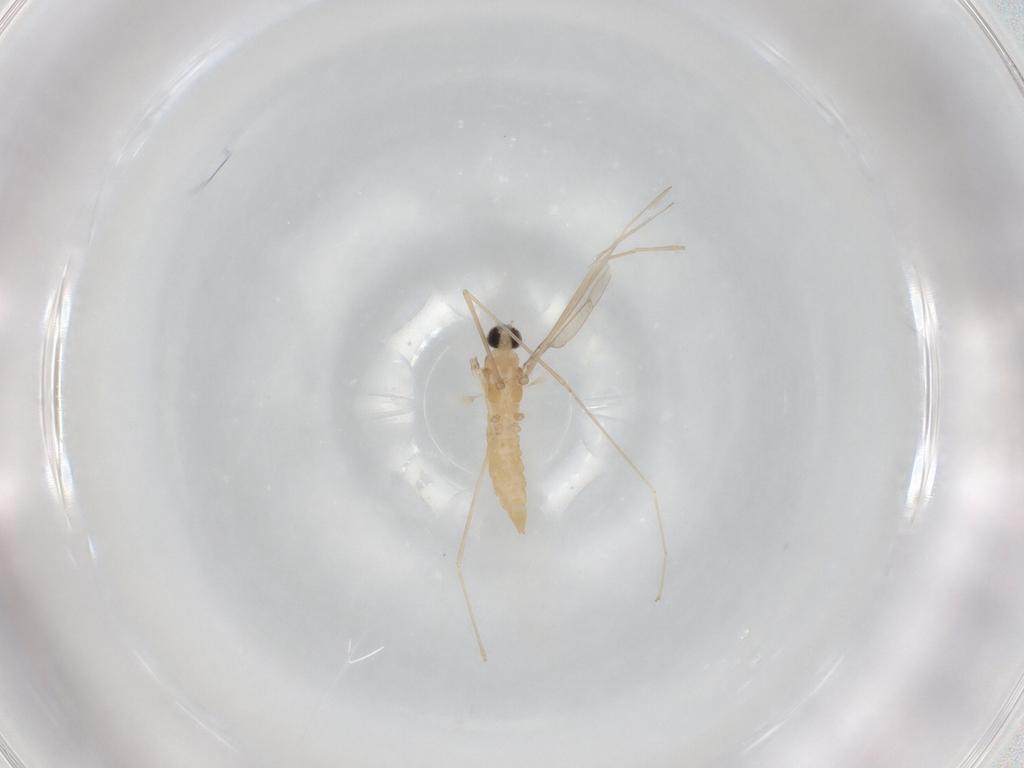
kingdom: Animalia
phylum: Arthropoda
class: Insecta
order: Diptera
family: Cecidomyiidae
